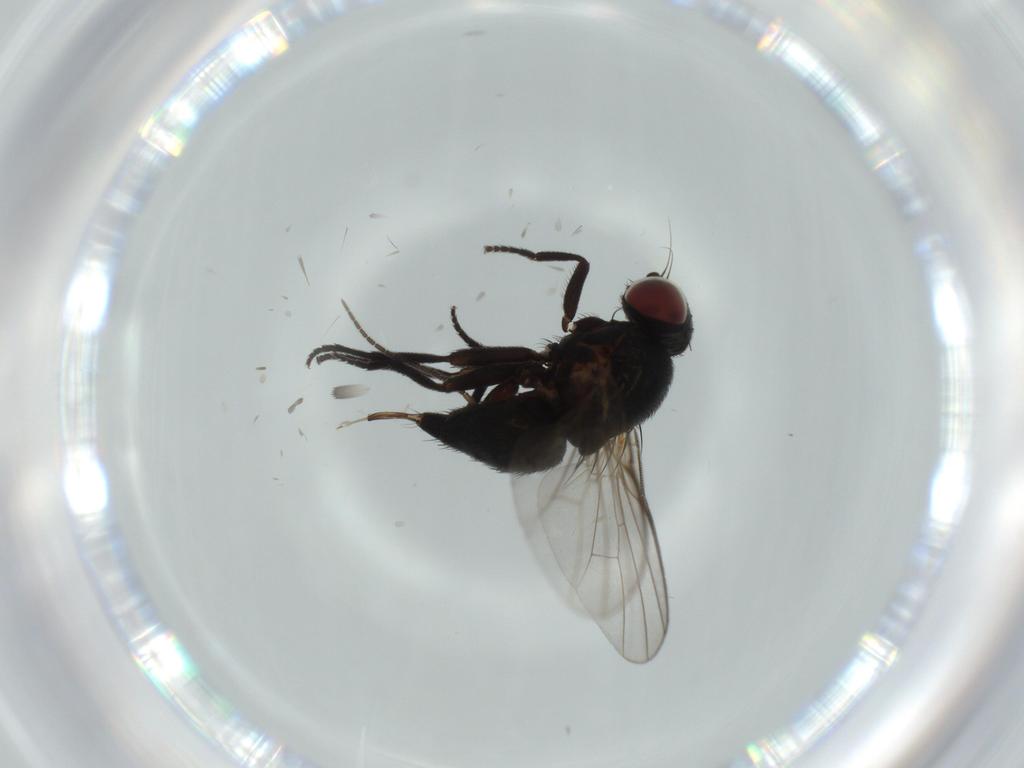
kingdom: Animalia
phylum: Arthropoda
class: Insecta
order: Diptera
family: Agromyzidae
